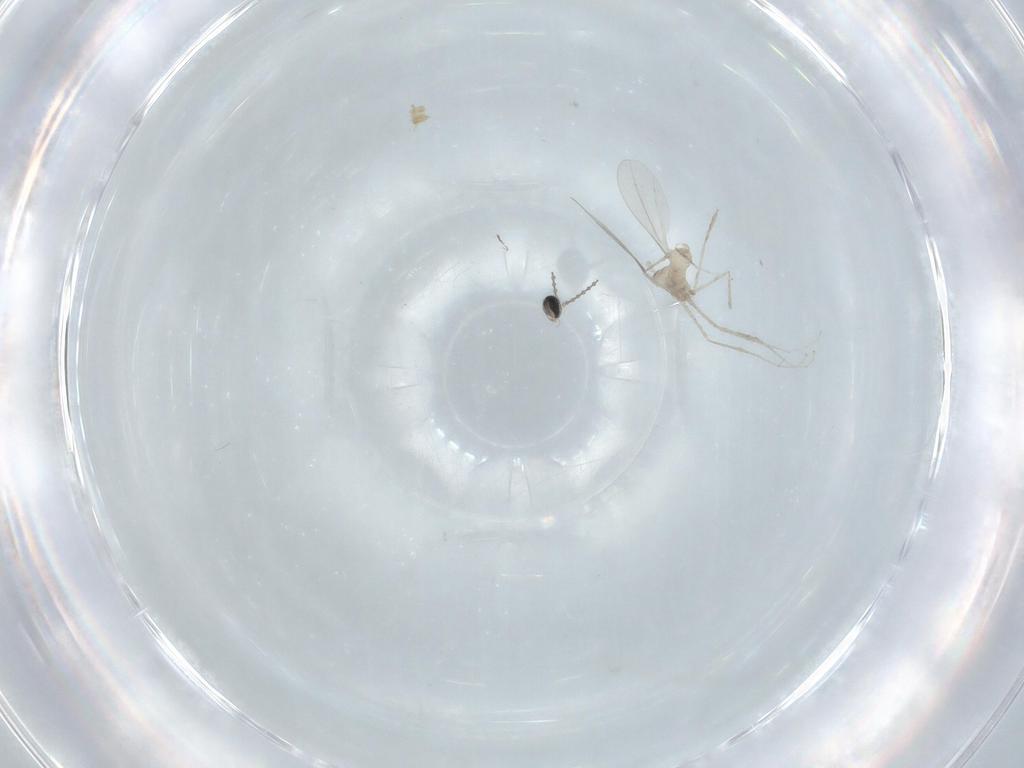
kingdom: Animalia
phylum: Arthropoda
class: Insecta
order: Diptera
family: Cecidomyiidae
